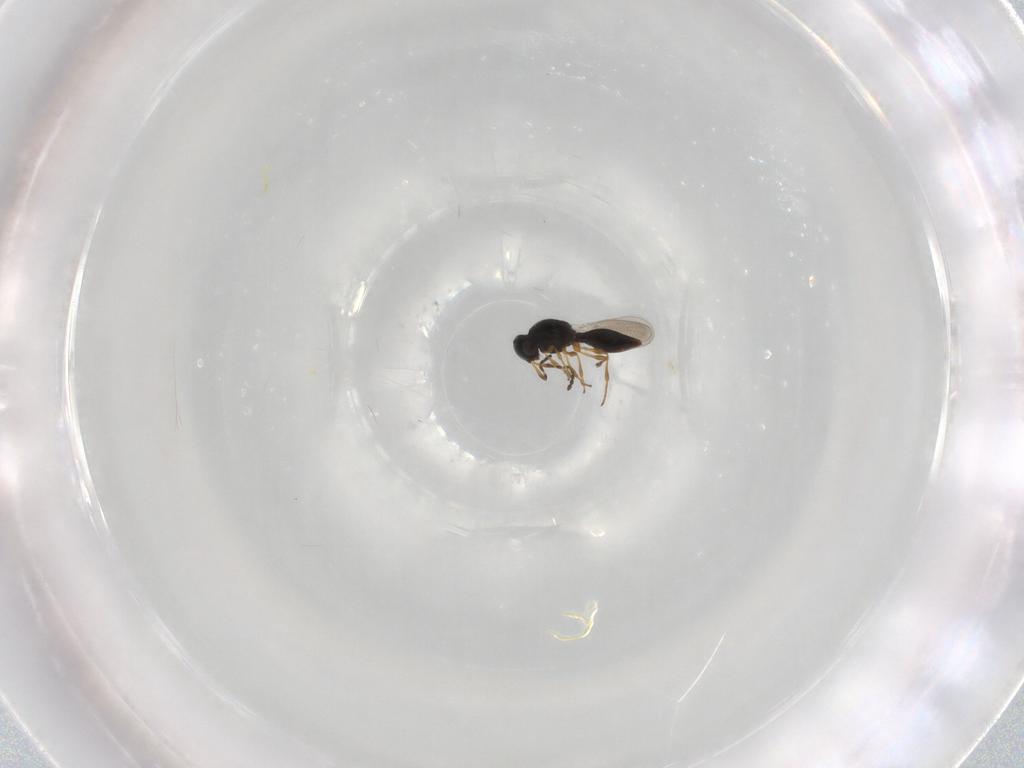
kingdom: Animalia
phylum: Arthropoda
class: Insecta
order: Hymenoptera
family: Platygastridae
